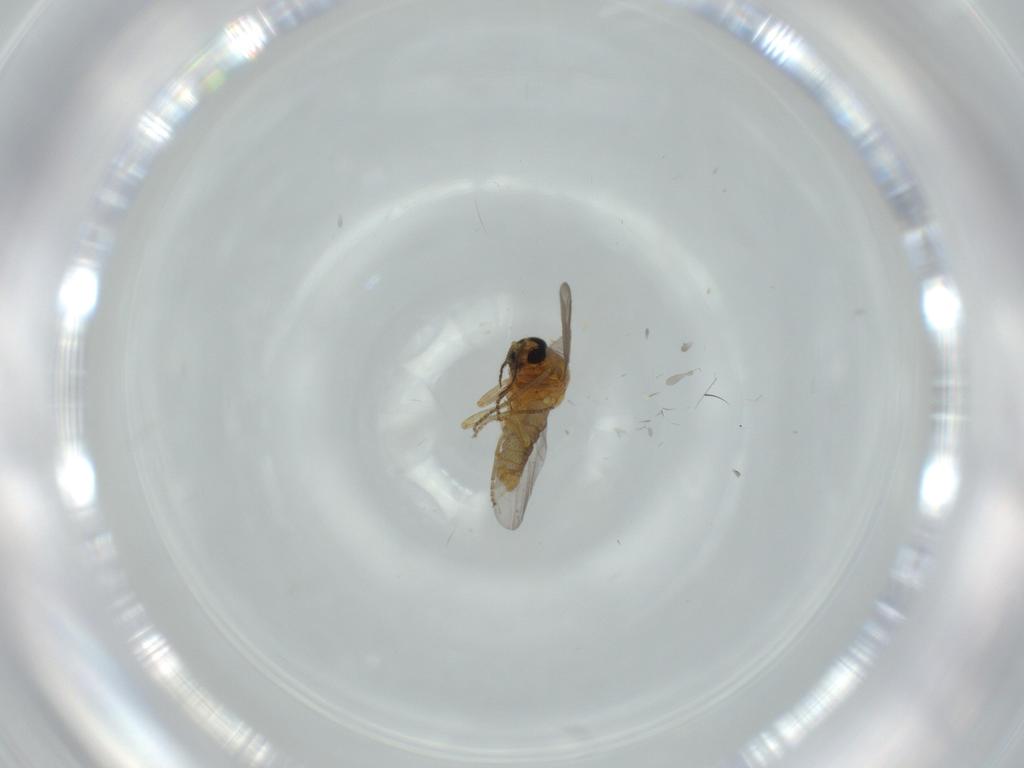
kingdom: Animalia
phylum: Arthropoda
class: Insecta
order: Diptera
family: Ceratopogonidae
